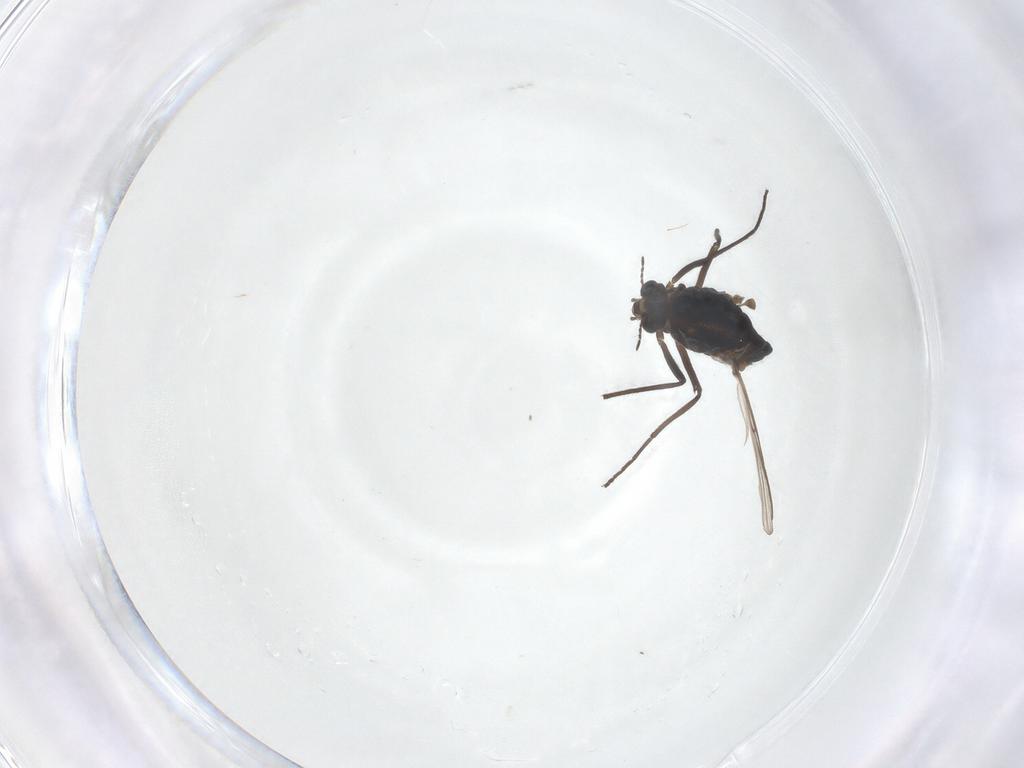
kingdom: Animalia
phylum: Arthropoda
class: Insecta
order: Diptera
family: Chironomidae
